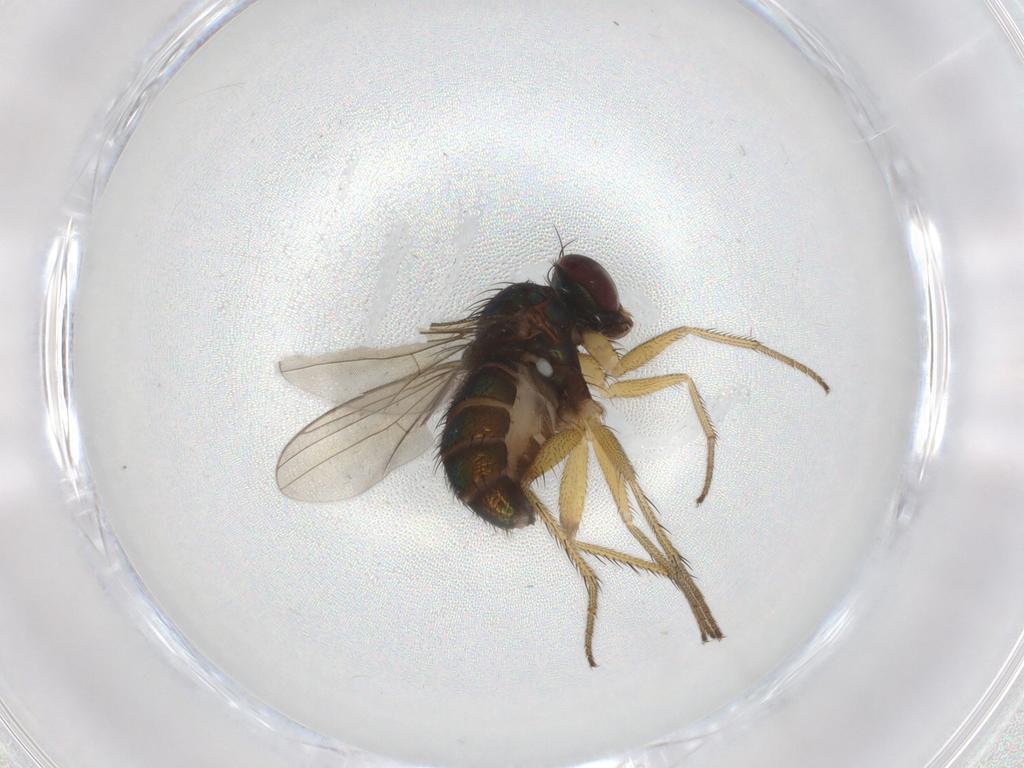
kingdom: Animalia
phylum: Arthropoda
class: Insecta
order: Diptera
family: Dolichopodidae
